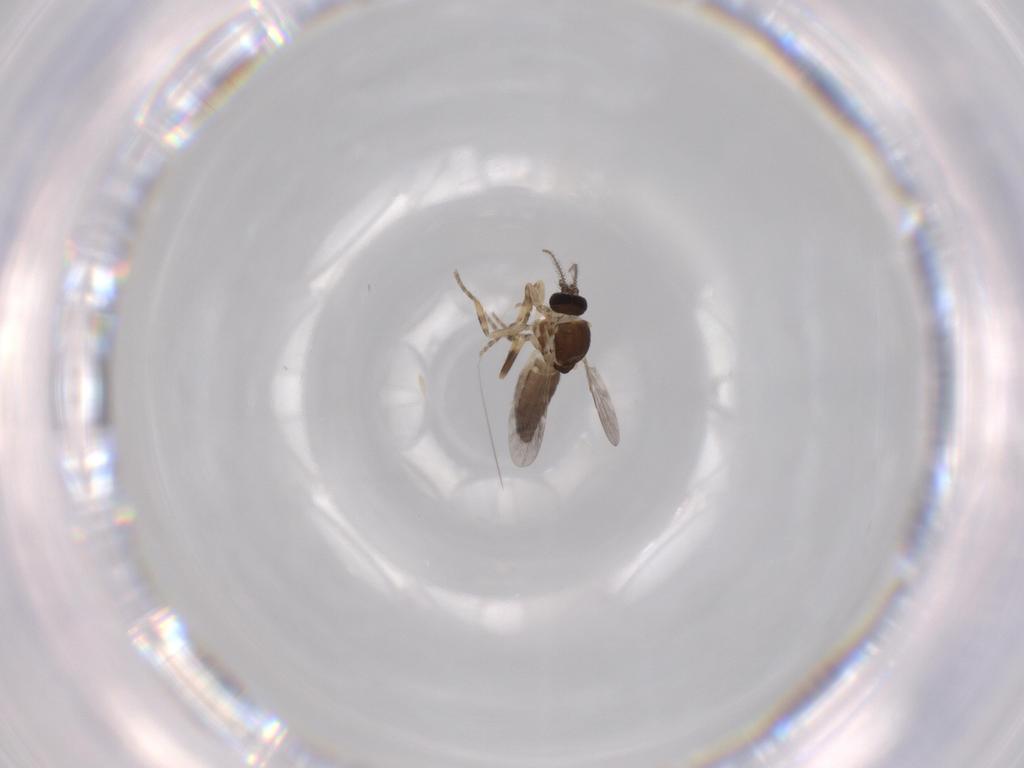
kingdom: Animalia
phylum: Arthropoda
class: Insecta
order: Diptera
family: Ceratopogonidae
